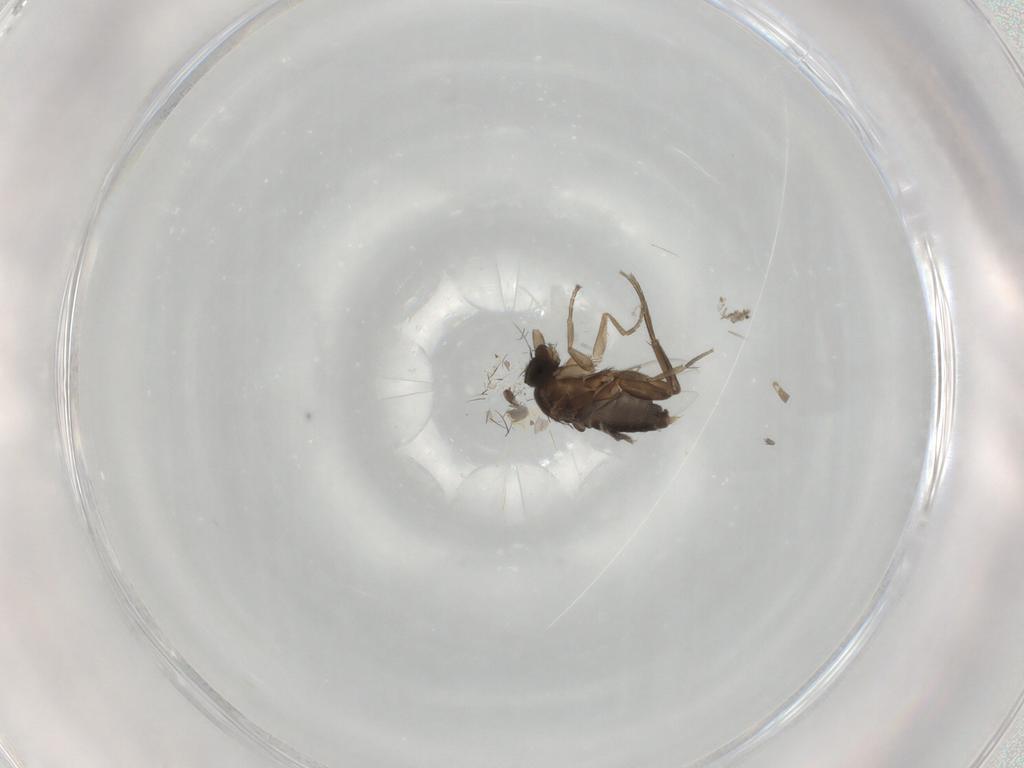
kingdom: Animalia
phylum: Arthropoda
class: Insecta
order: Diptera
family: Phoridae
